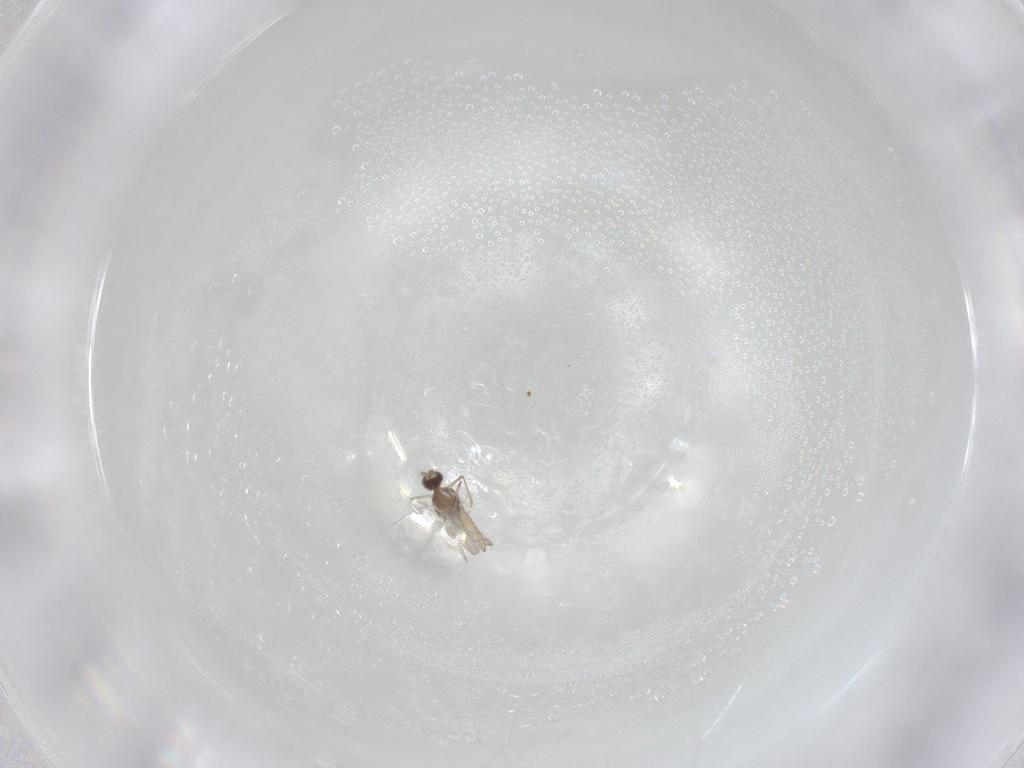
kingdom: Animalia
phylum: Arthropoda
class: Insecta
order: Diptera
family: Cecidomyiidae
